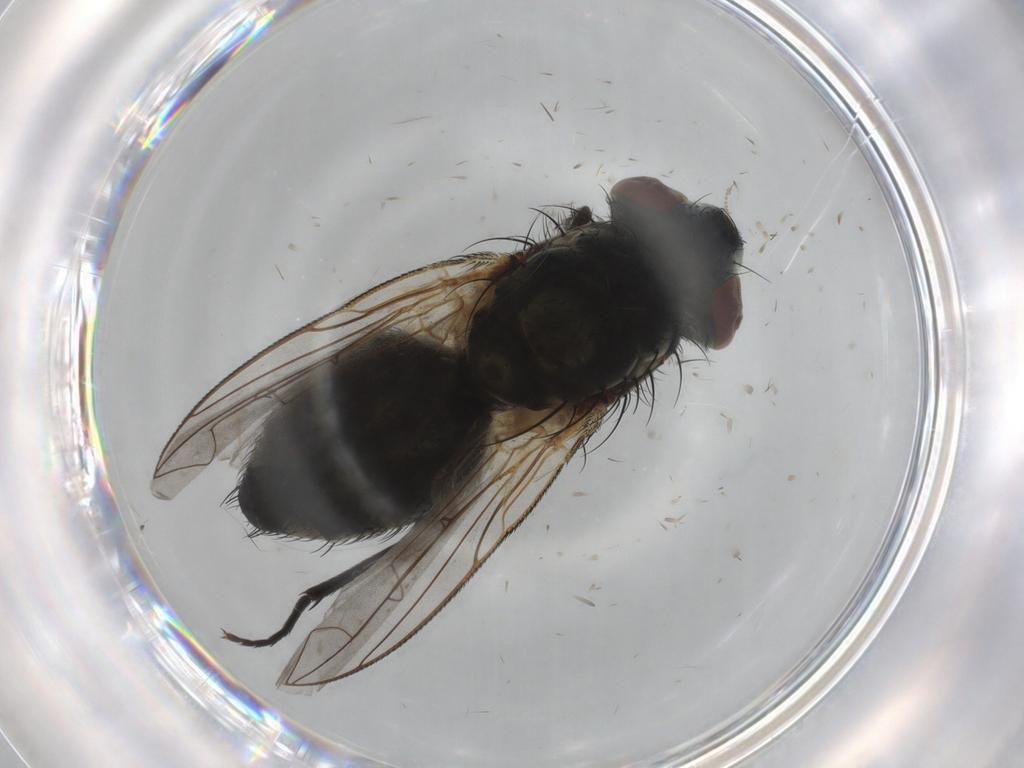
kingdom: Animalia
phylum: Arthropoda
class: Insecta
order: Diptera
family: Sarcophagidae
